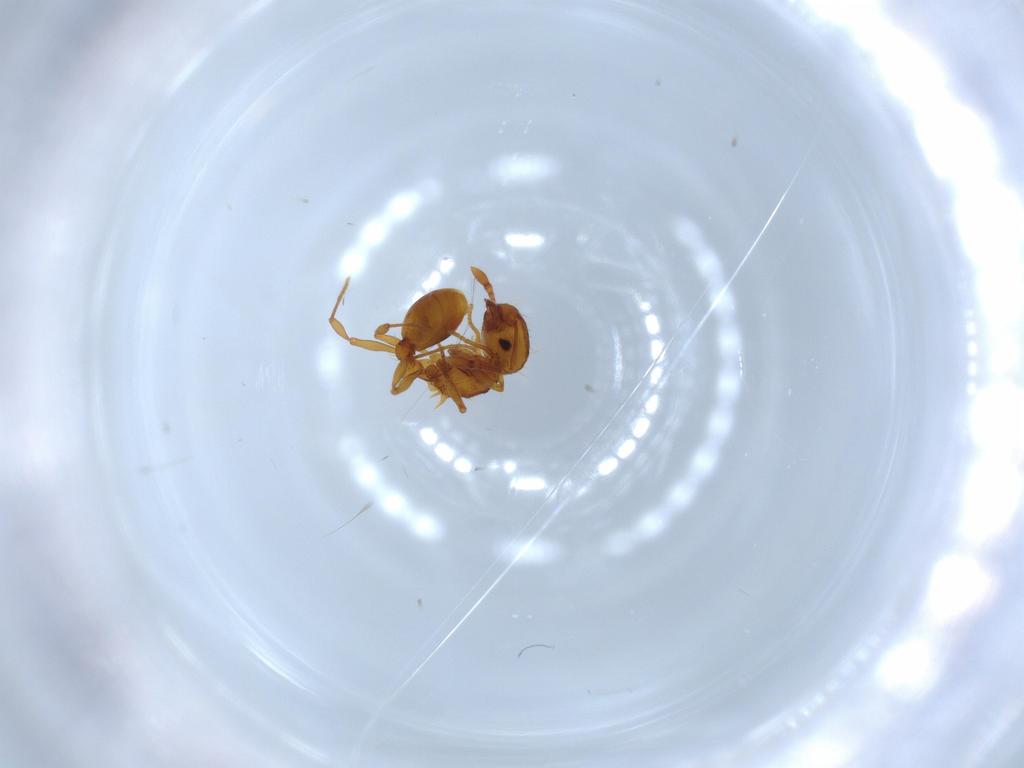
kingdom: Animalia
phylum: Arthropoda
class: Insecta
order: Hymenoptera
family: Formicidae
